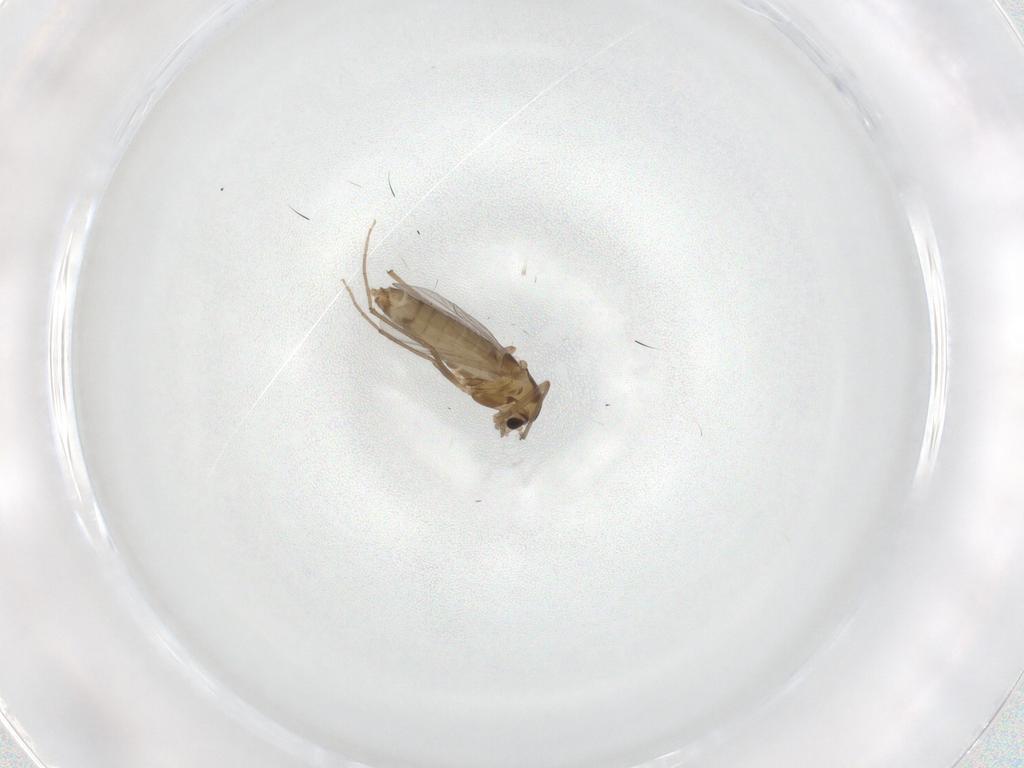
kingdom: Animalia
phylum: Arthropoda
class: Insecta
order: Diptera
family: Chironomidae
